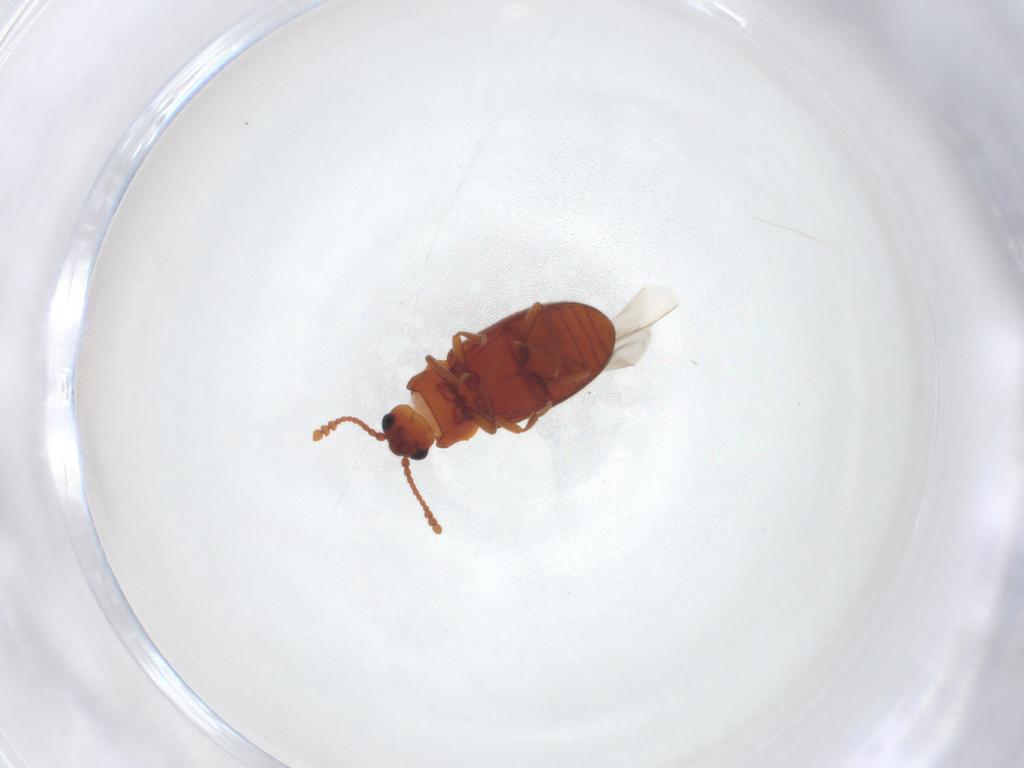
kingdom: Animalia
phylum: Arthropoda
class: Insecta
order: Coleoptera
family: Cryptophagidae
